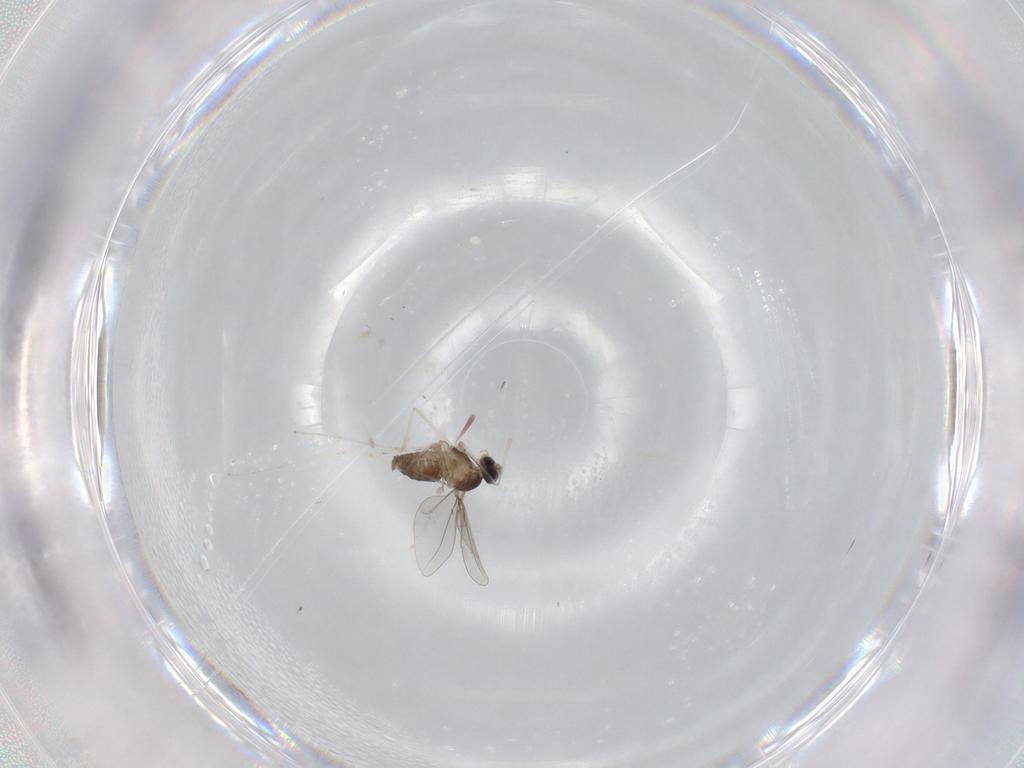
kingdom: Animalia
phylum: Arthropoda
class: Insecta
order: Diptera
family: Cecidomyiidae
